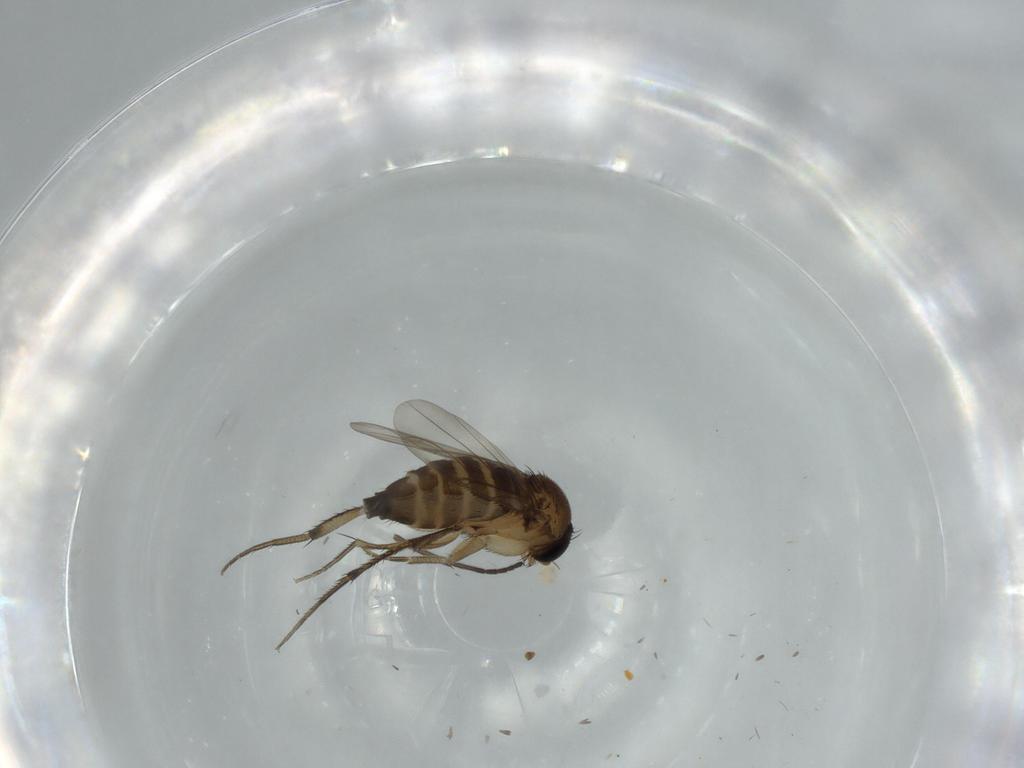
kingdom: Animalia
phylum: Arthropoda
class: Insecta
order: Diptera
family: Phoridae
